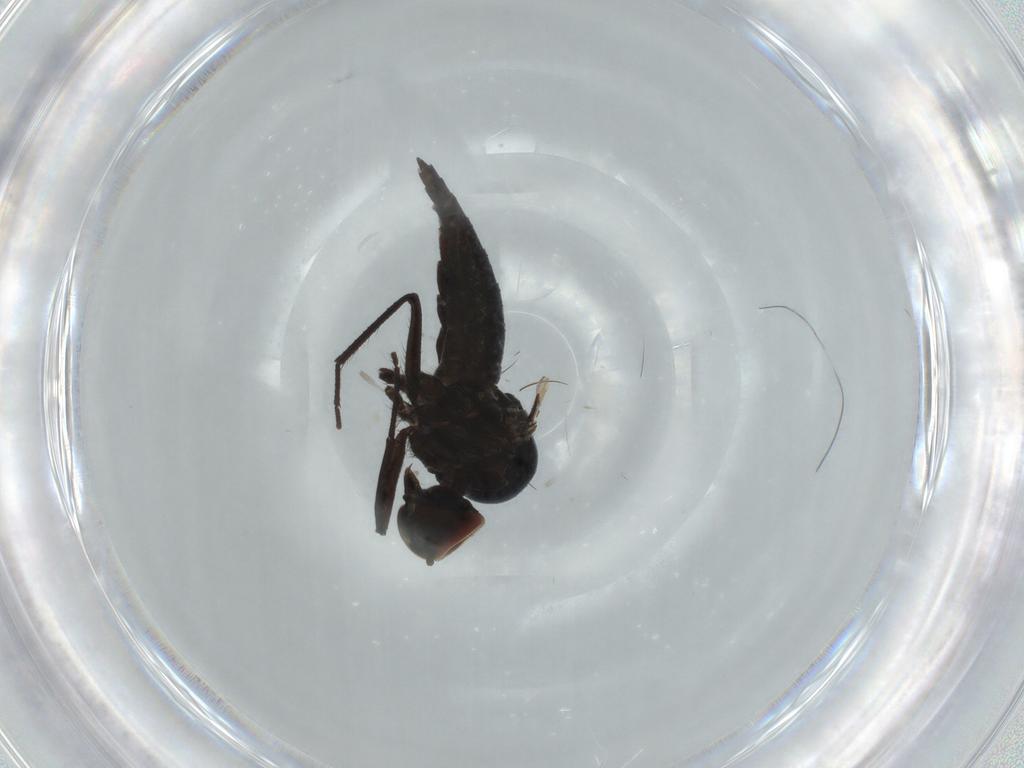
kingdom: Animalia
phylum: Arthropoda
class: Insecta
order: Diptera
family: Hybotidae
